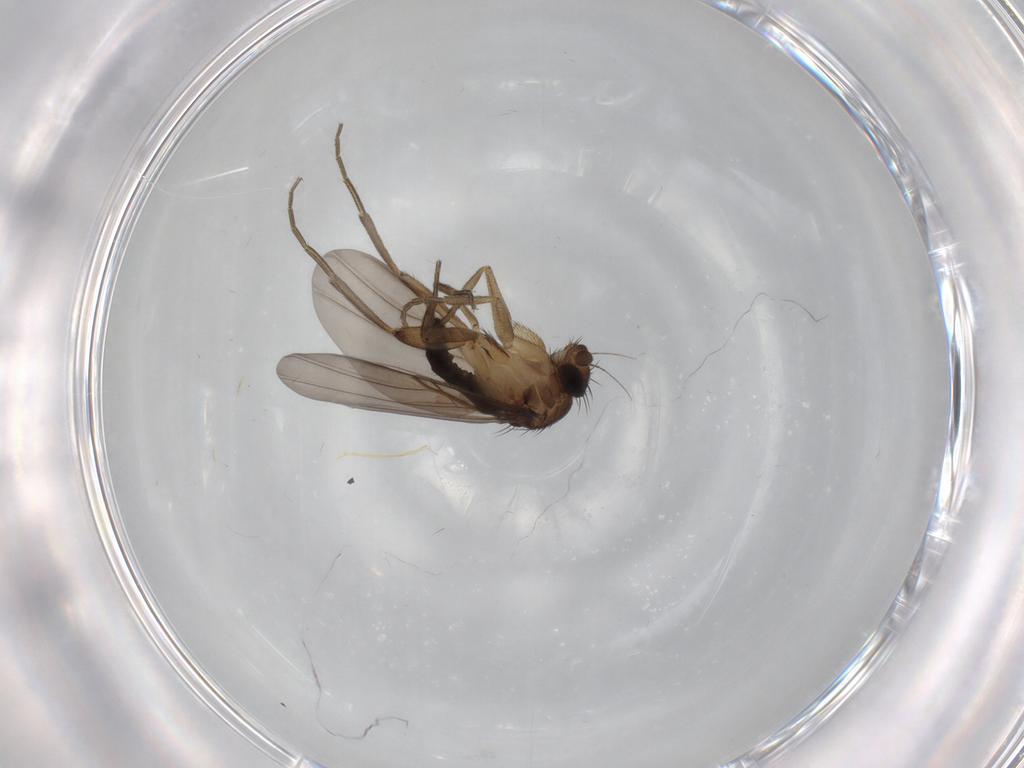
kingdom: Animalia
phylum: Arthropoda
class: Insecta
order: Diptera
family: Phoridae
